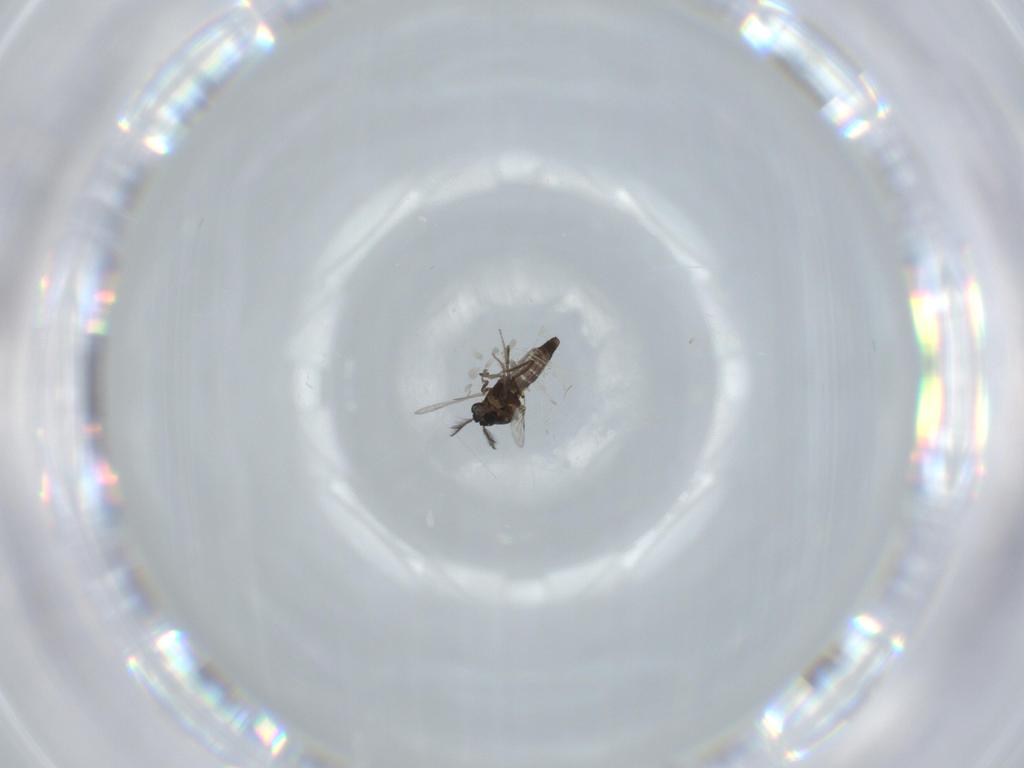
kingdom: Animalia
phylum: Arthropoda
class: Insecta
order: Diptera
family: Ceratopogonidae
